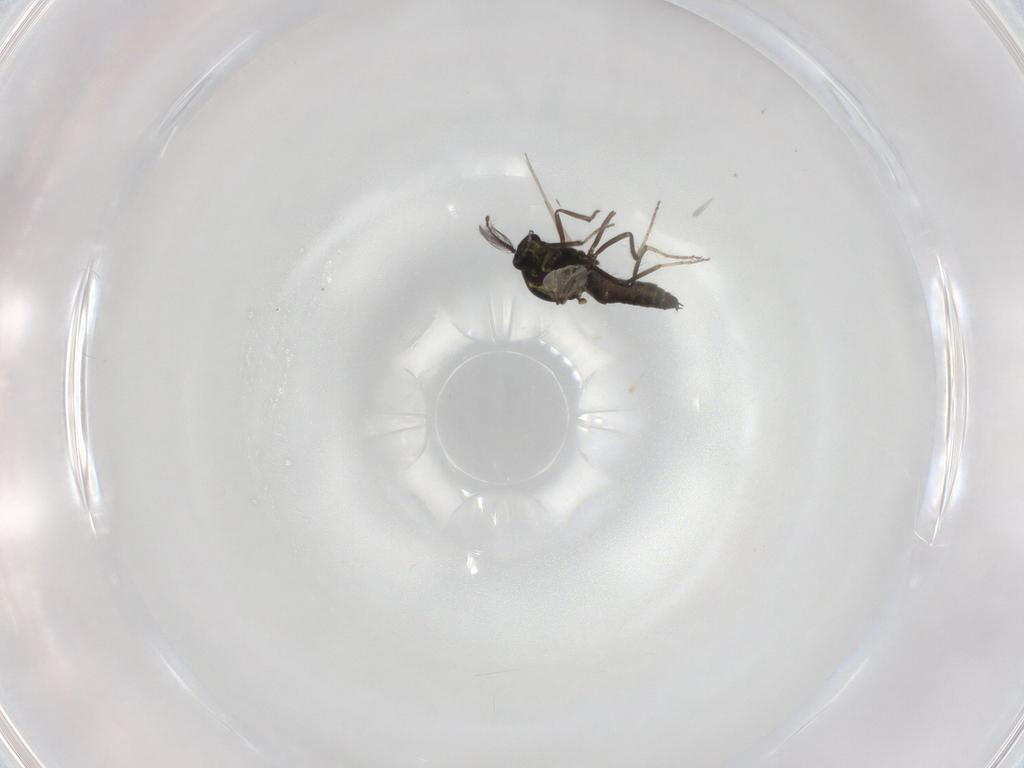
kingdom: Animalia
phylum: Arthropoda
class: Insecta
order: Diptera
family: Ceratopogonidae
